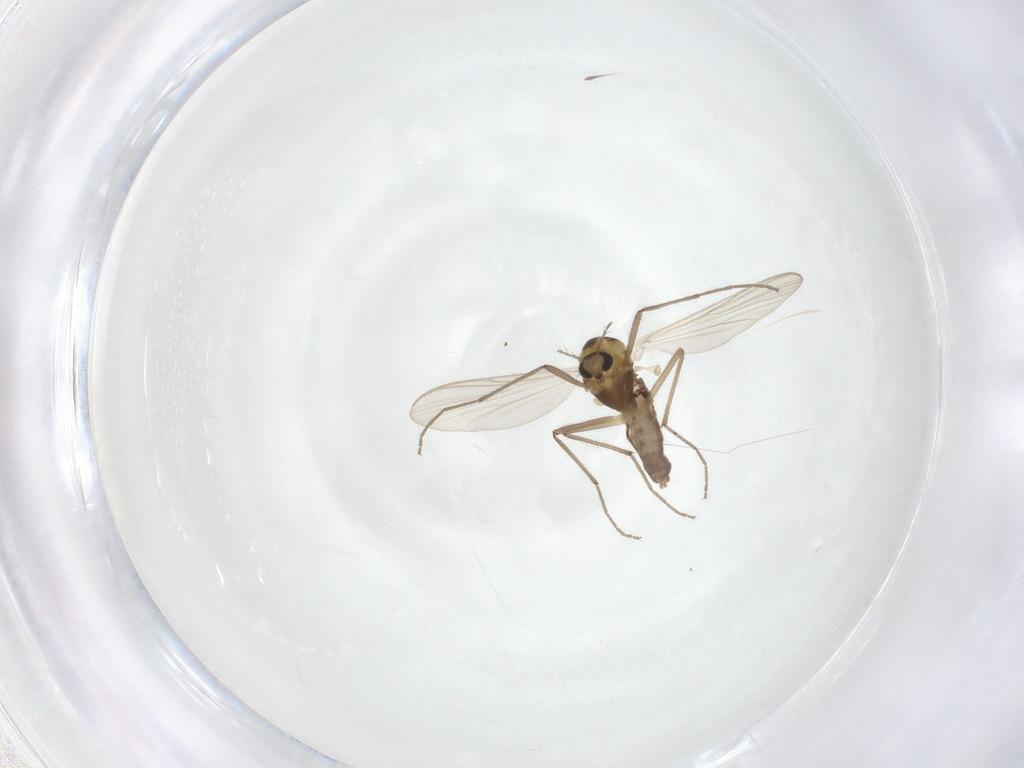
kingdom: Animalia
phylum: Arthropoda
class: Insecta
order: Diptera
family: Chironomidae
